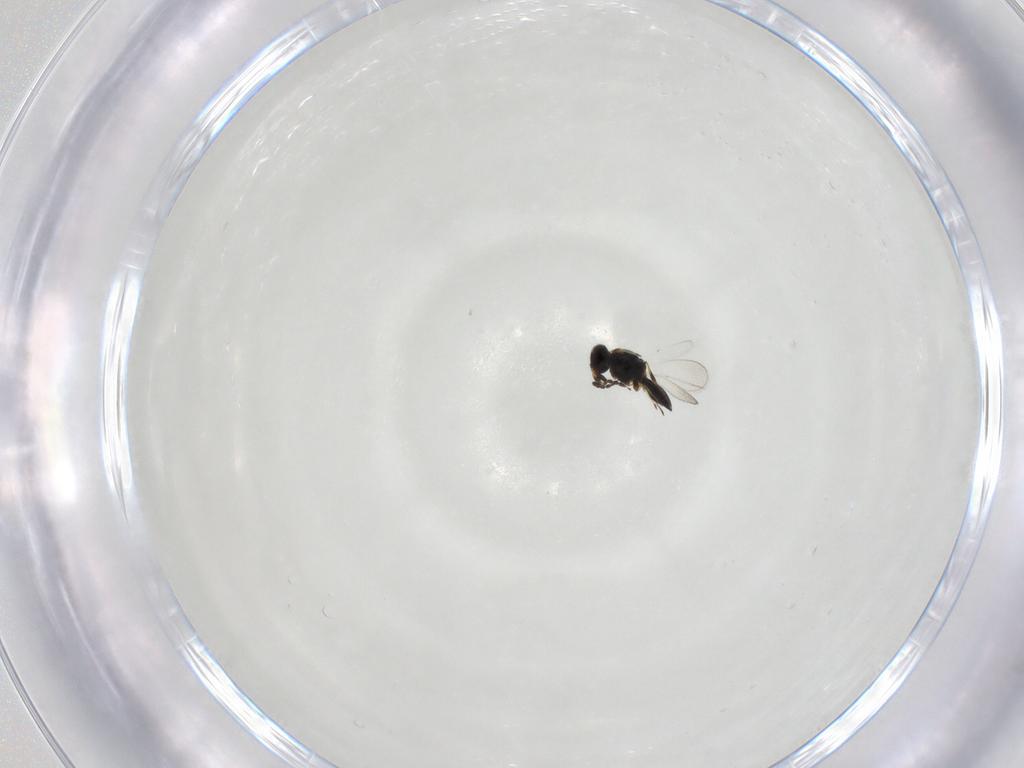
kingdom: Animalia
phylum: Arthropoda
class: Insecta
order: Hymenoptera
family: Platygastridae
